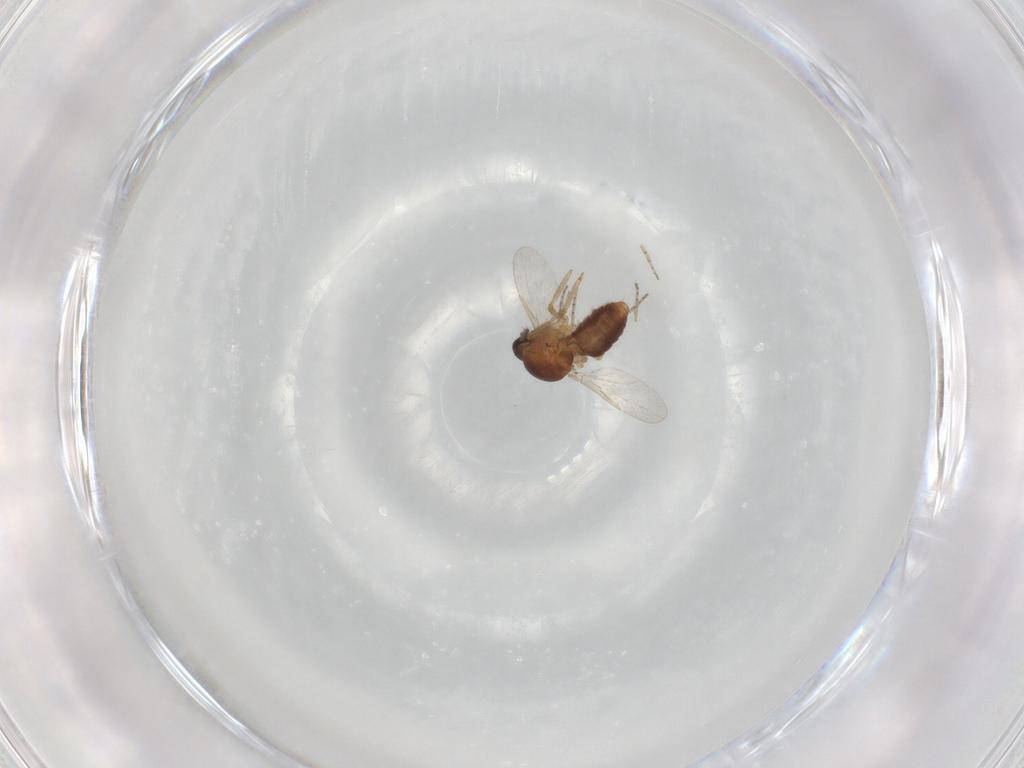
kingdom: Animalia
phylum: Arthropoda
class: Insecta
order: Diptera
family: Ceratopogonidae
